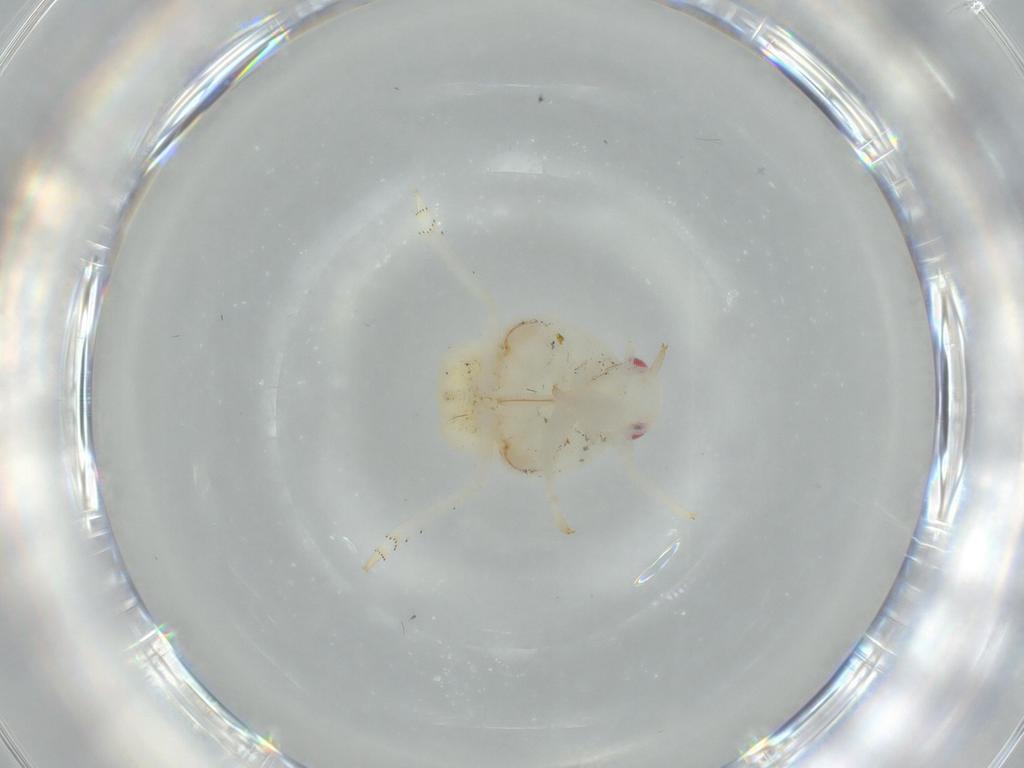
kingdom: Animalia
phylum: Arthropoda
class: Insecta
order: Hemiptera
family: Flatidae
